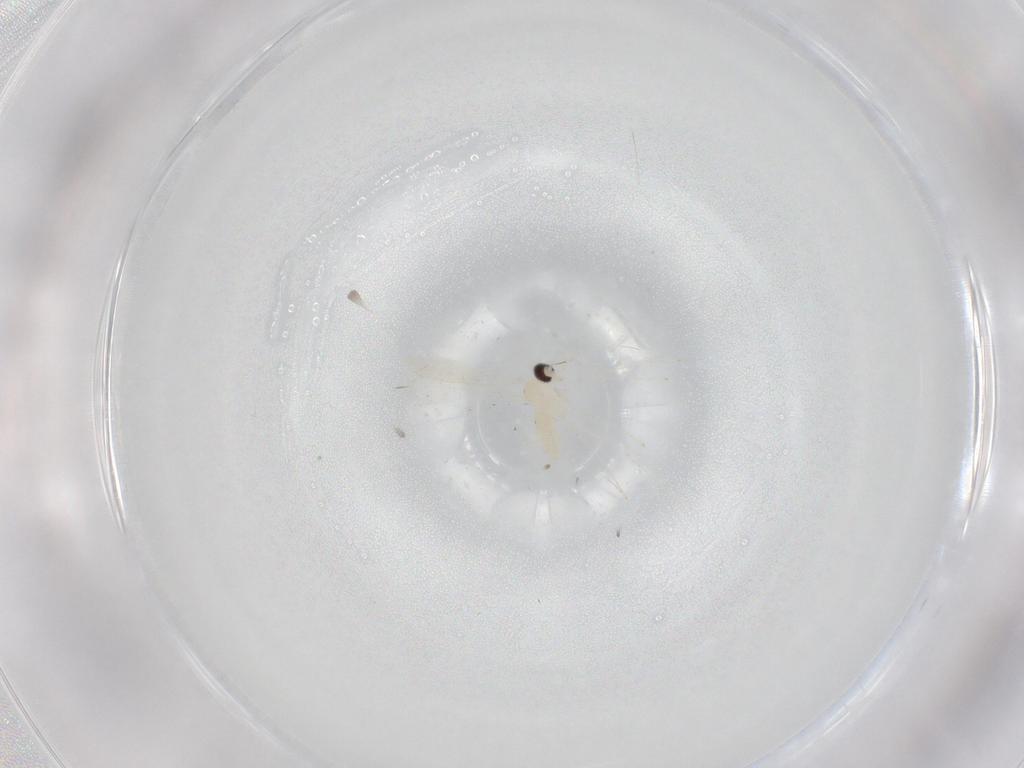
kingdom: Animalia
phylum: Arthropoda
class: Insecta
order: Diptera
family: Cecidomyiidae
